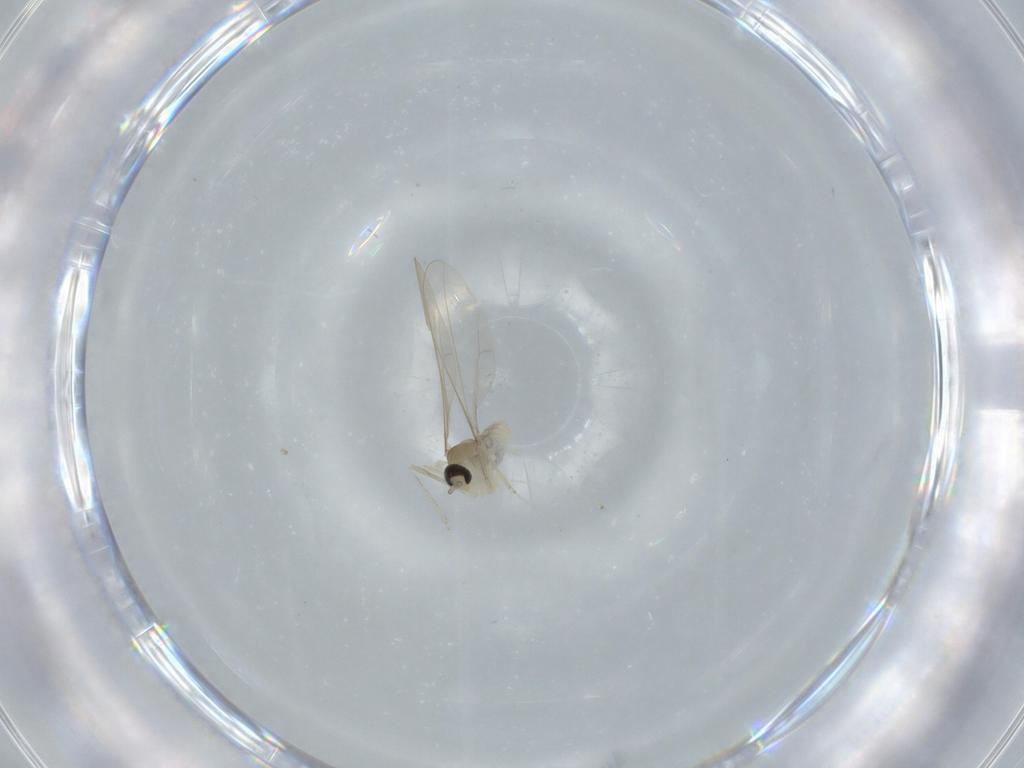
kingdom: Animalia
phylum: Arthropoda
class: Insecta
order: Diptera
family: Cecidomyiidae
